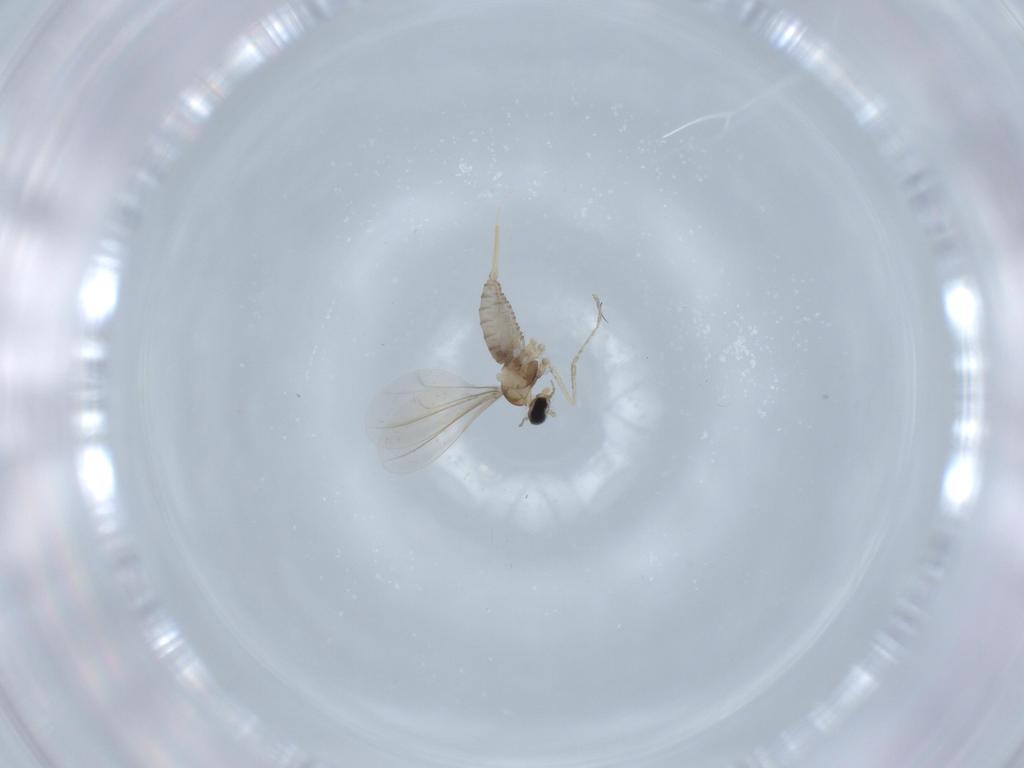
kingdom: Animalia
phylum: Arthropoda
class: Insecta
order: Diptera
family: Cecidomyiidae
